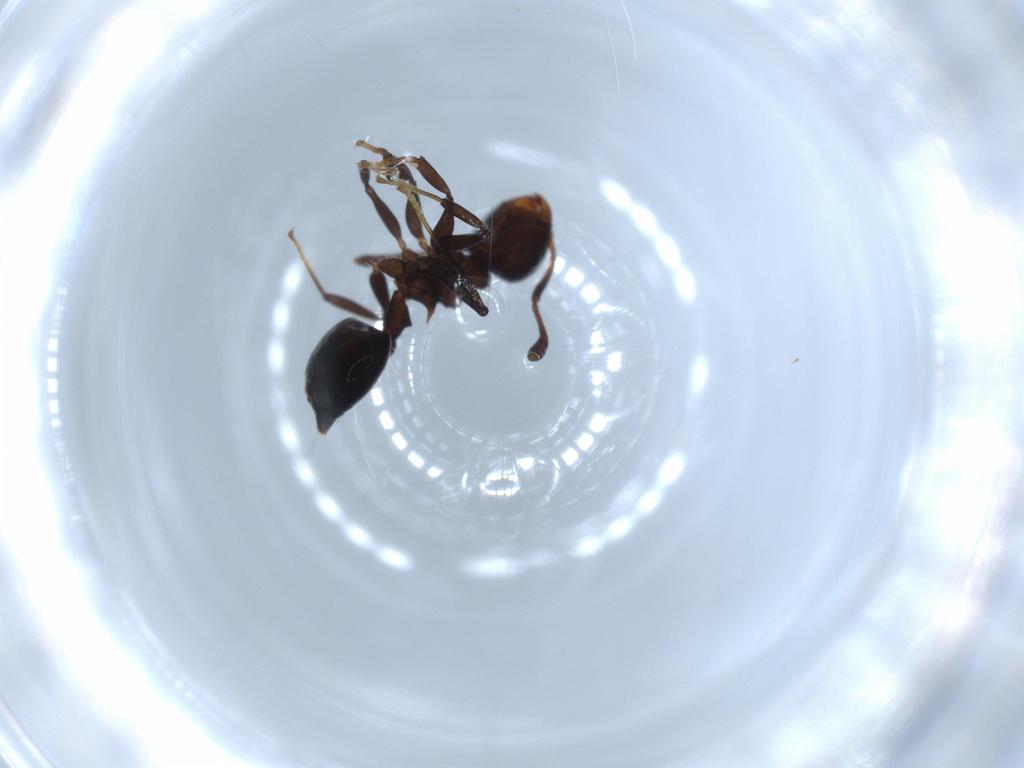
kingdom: Animalia
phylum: Arthropoda
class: Insecta
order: Hymenoptera
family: Formicidae
